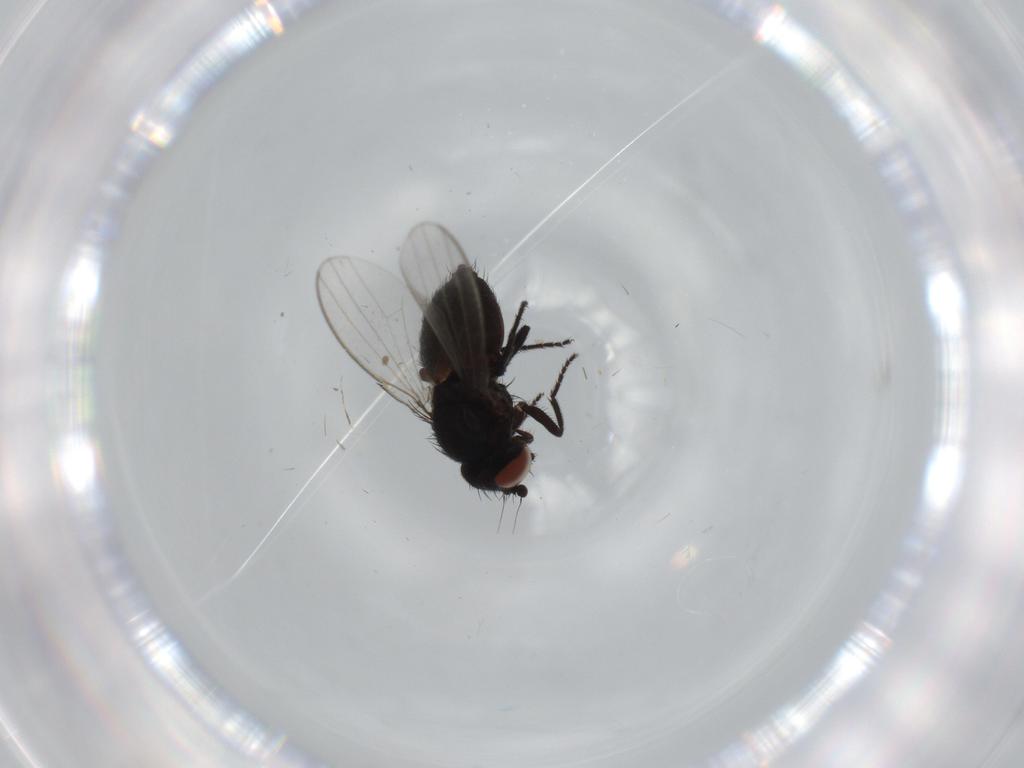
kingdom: Animalia
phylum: Arthropoda
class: Insecta
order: Diptera
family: Milichiidae
